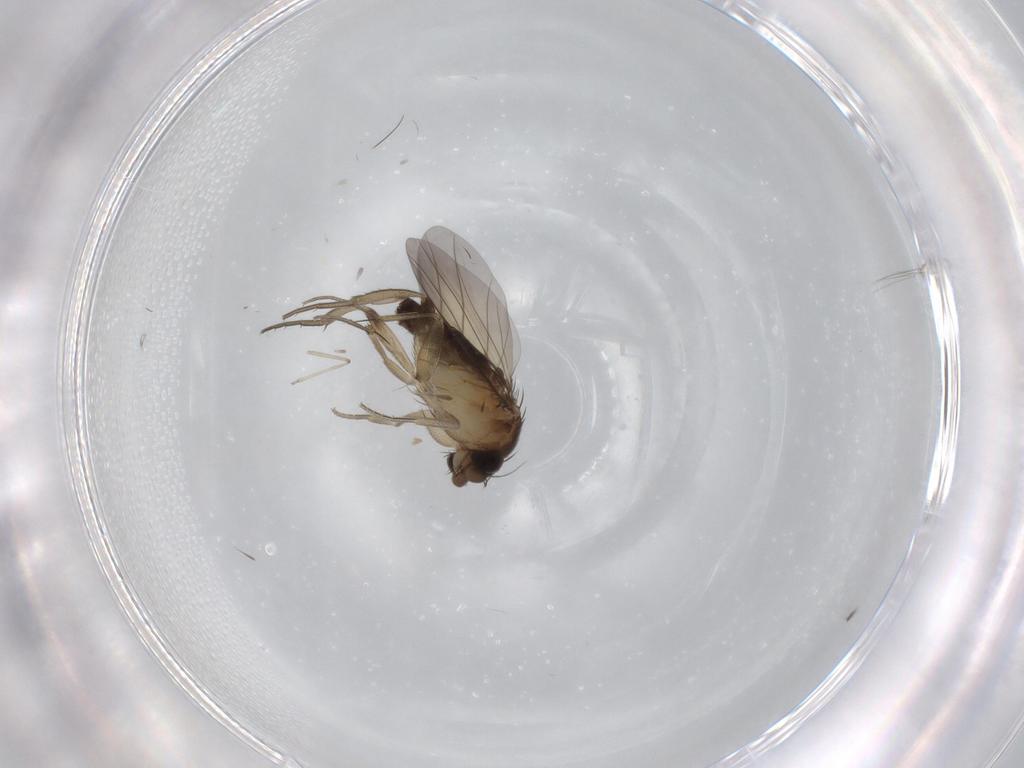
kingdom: Animalia
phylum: Arthropoda
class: Insecta
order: Diptera
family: Phoridae
